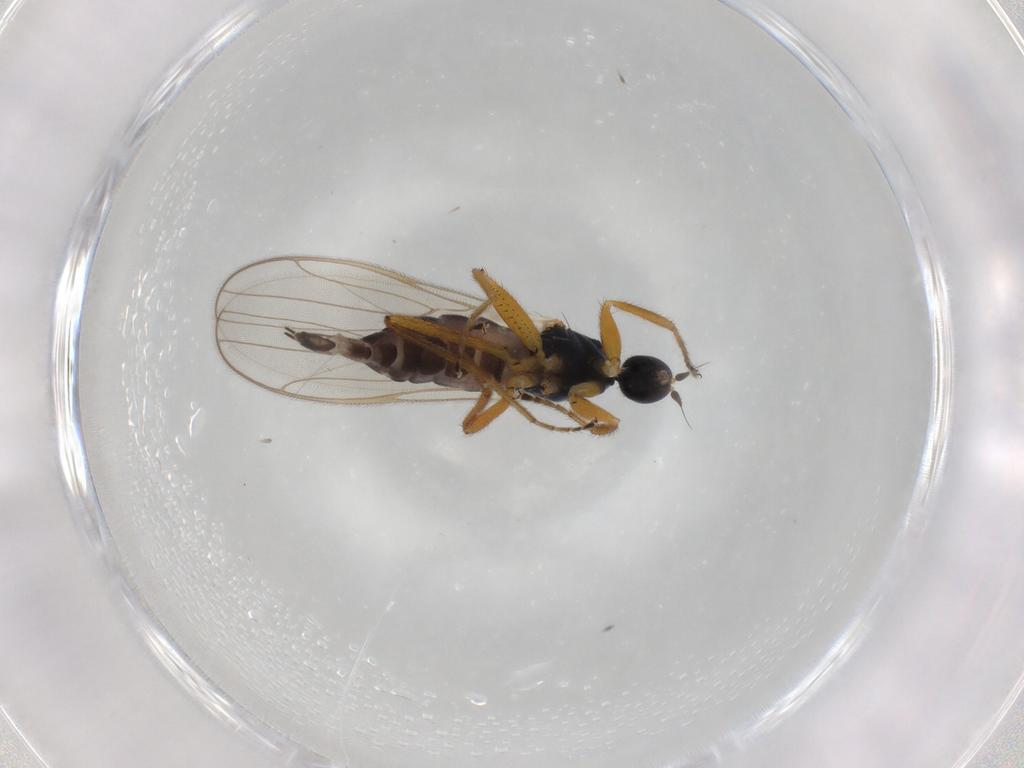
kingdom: Animalia
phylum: Arthropoda
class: Insecta
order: Diptera
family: Hybotidae
